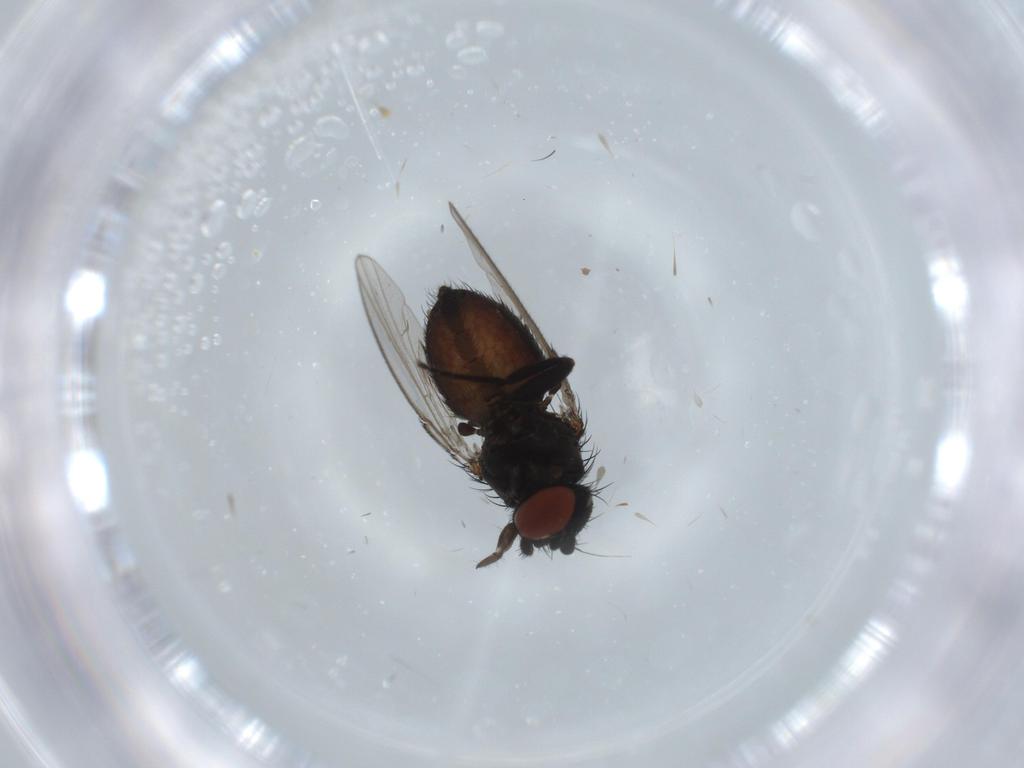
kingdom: Animalia
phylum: Arthropoda
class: Insecta
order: Diptera
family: Milichiidae
